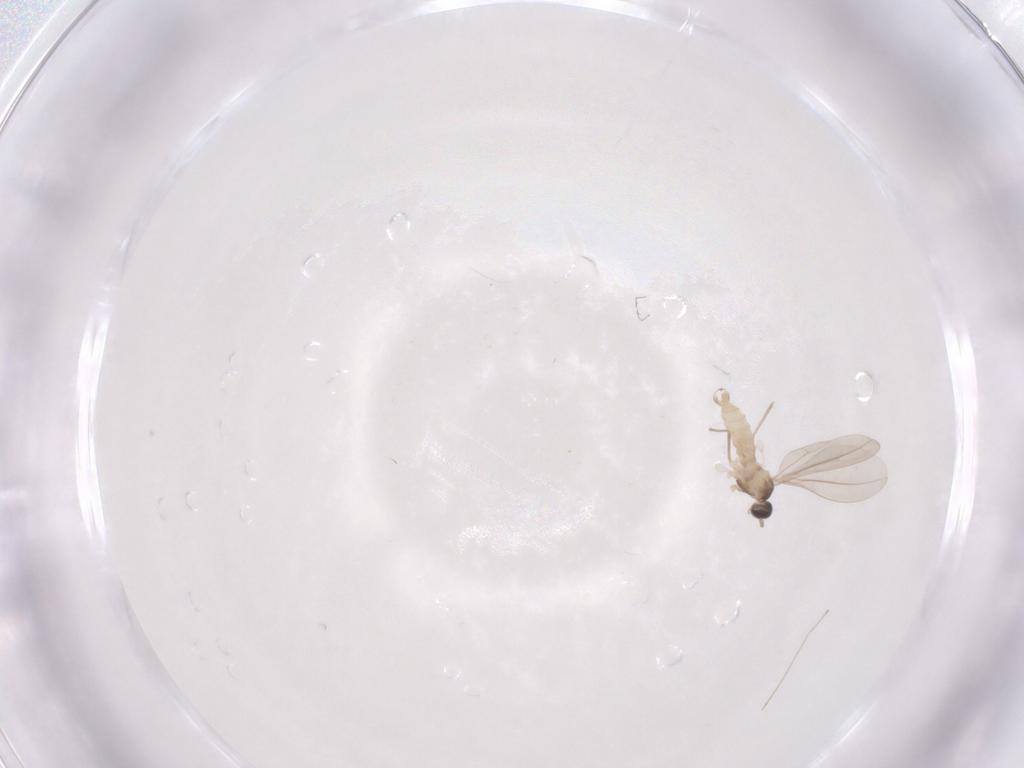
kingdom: Animalia
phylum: Arthropoda
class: Insecta
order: Diptera
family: Cecidomyiidae
